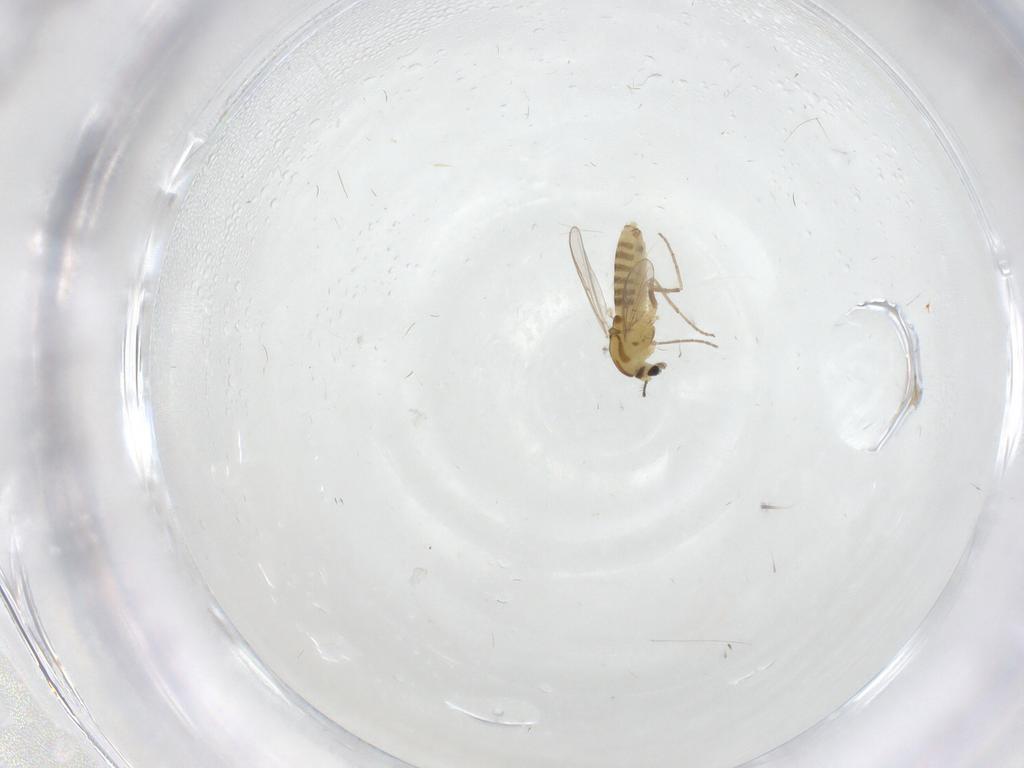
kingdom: Animalia
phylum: Arthropoda
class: Insecta
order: Diptera
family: Chironomidae
